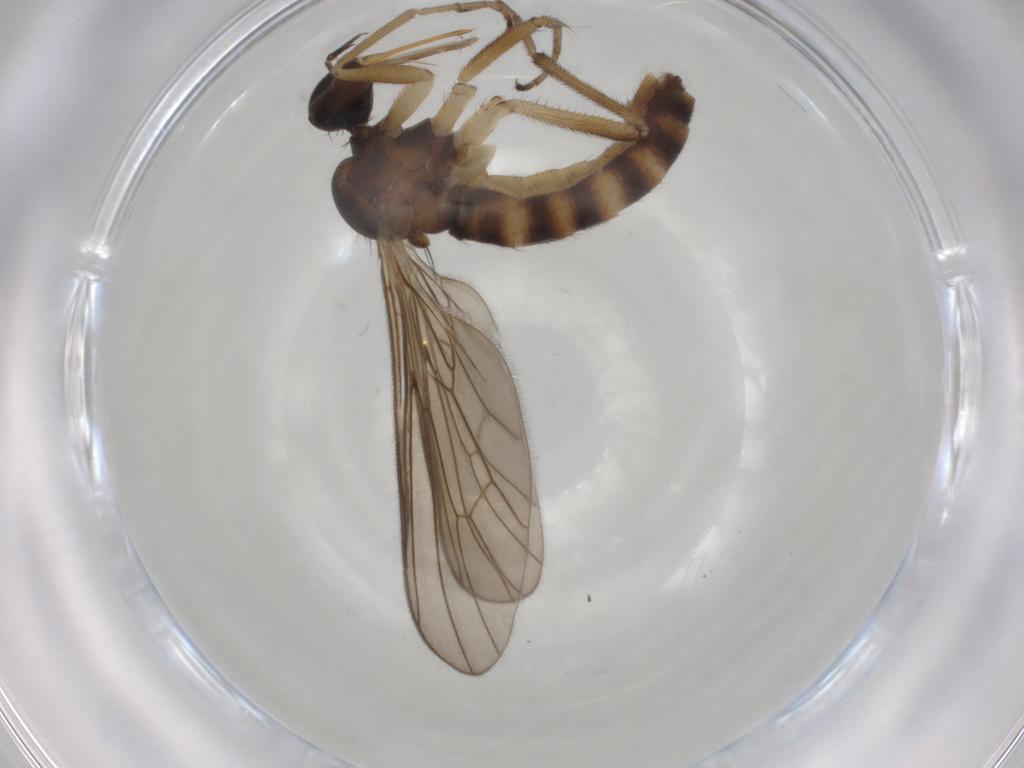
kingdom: Animalia
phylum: Arthropoda
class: Insecta
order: Diptera
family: Empididae
